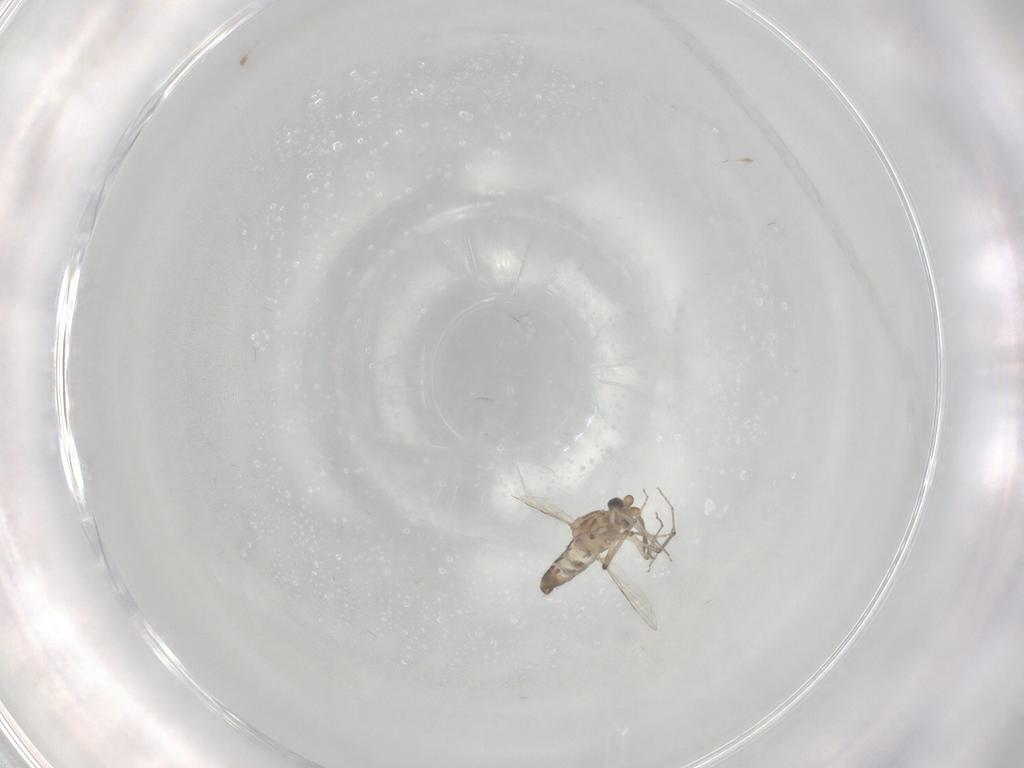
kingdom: Animalia
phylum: Arthropoda
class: Insecta
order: Diptera
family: Ceratopogonidae
